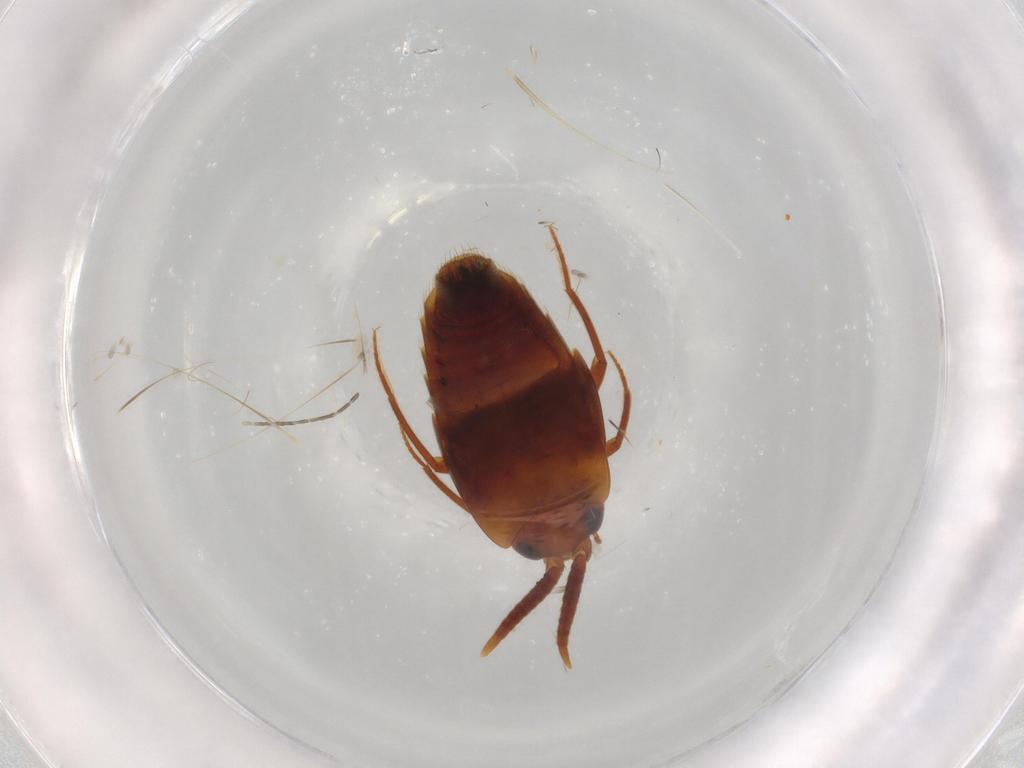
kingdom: Animalia
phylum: Arthropoda
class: Insecta
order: Coleoptera
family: Staphylinidae
